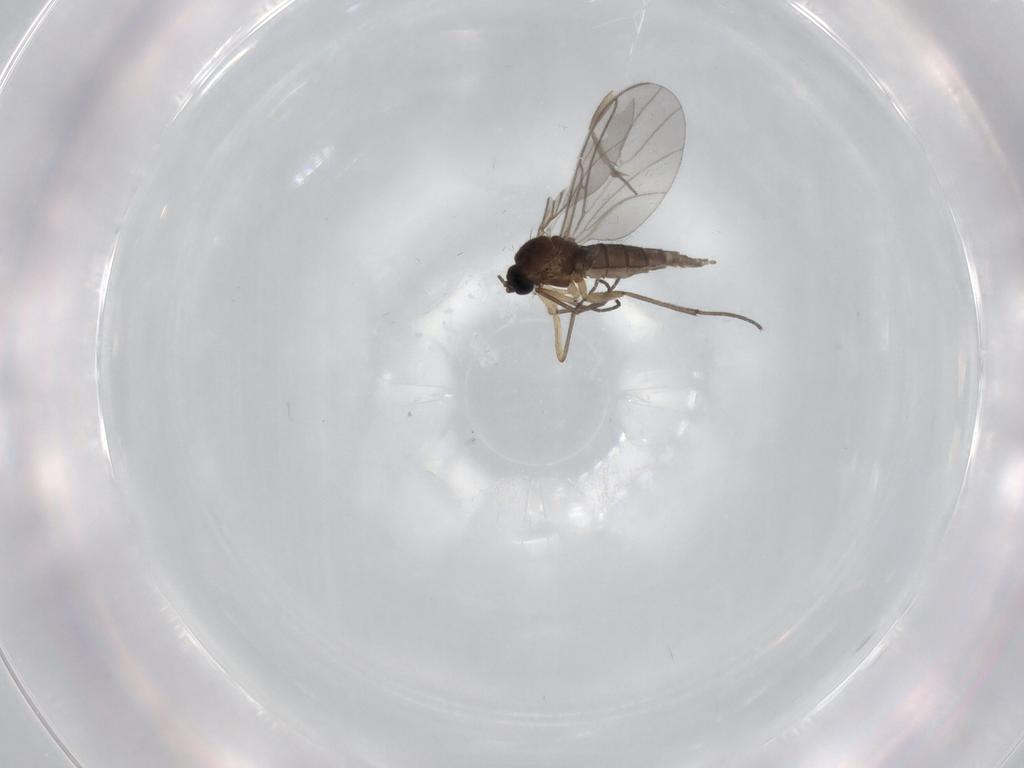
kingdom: Animalia
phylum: Arthropoda
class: Insecta
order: Diptera
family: Sciaridae
